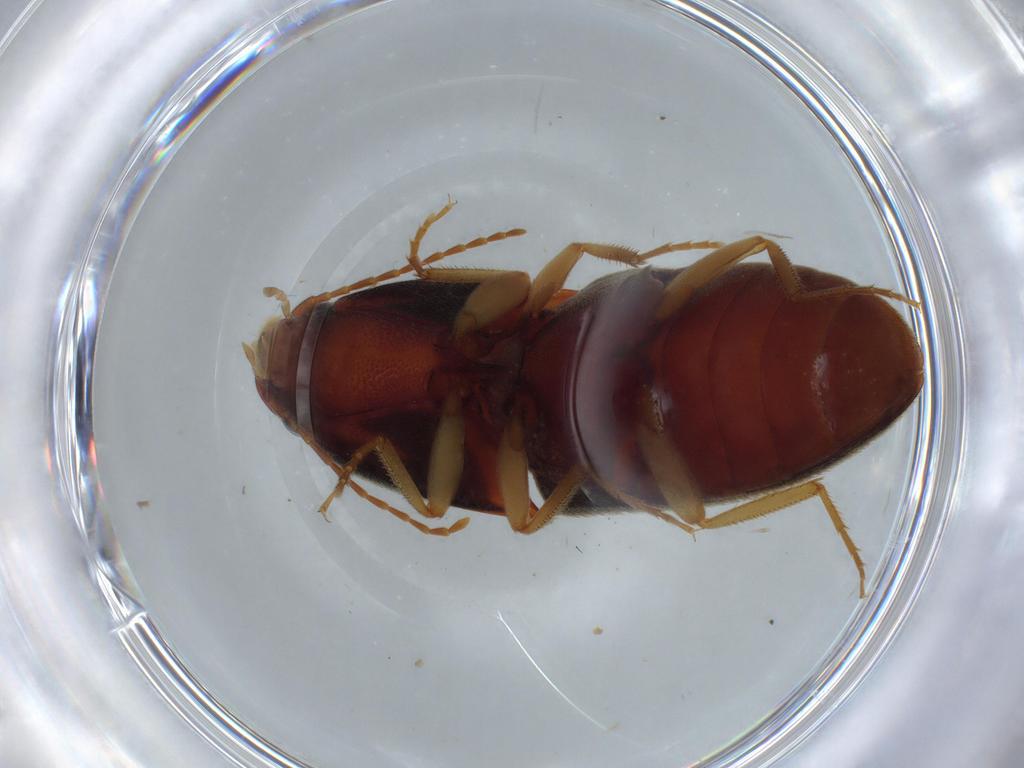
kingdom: Animalia
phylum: Arthropoda
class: Insecta
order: Coleoptera
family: Elateridae
